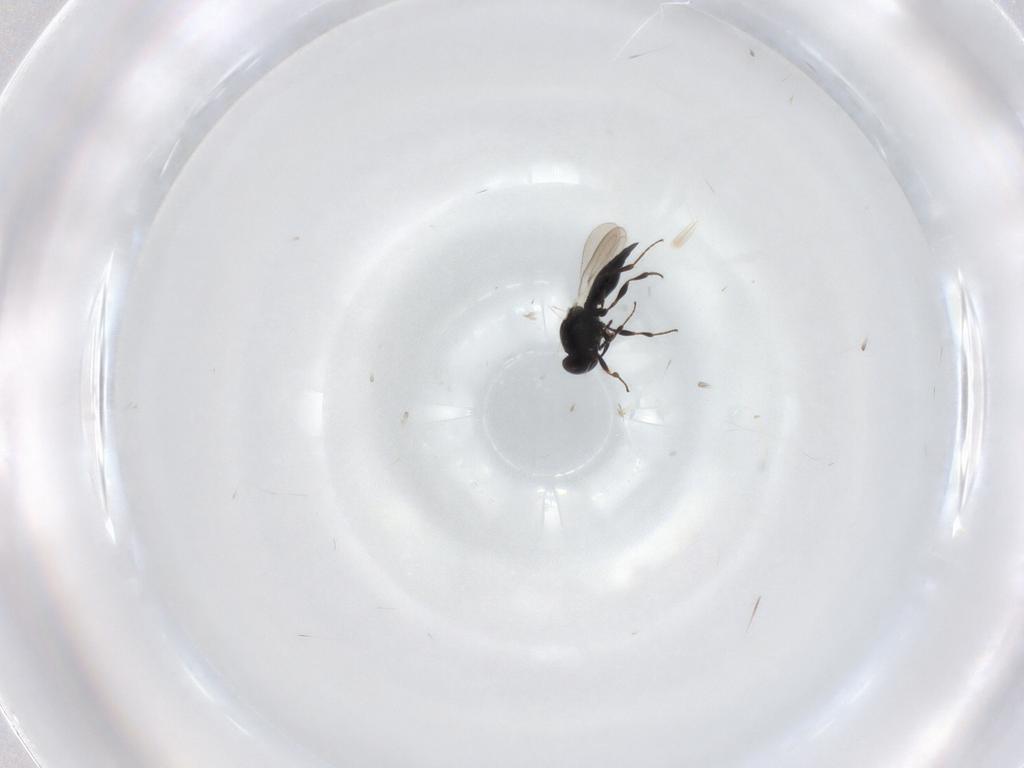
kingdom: Animalia
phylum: Arthropoda
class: Insecta
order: Hymenoptera
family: Platygastridae
